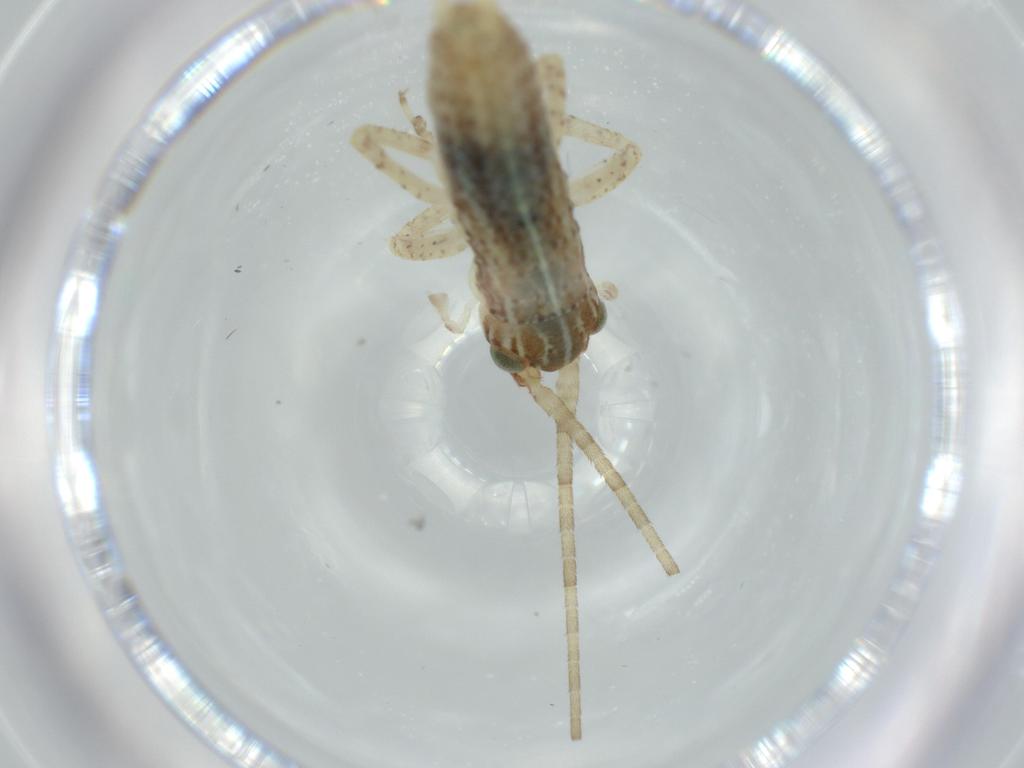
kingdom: Animalia
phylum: Arthropoda
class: Insecta
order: Orthoptera
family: Gryllidae
